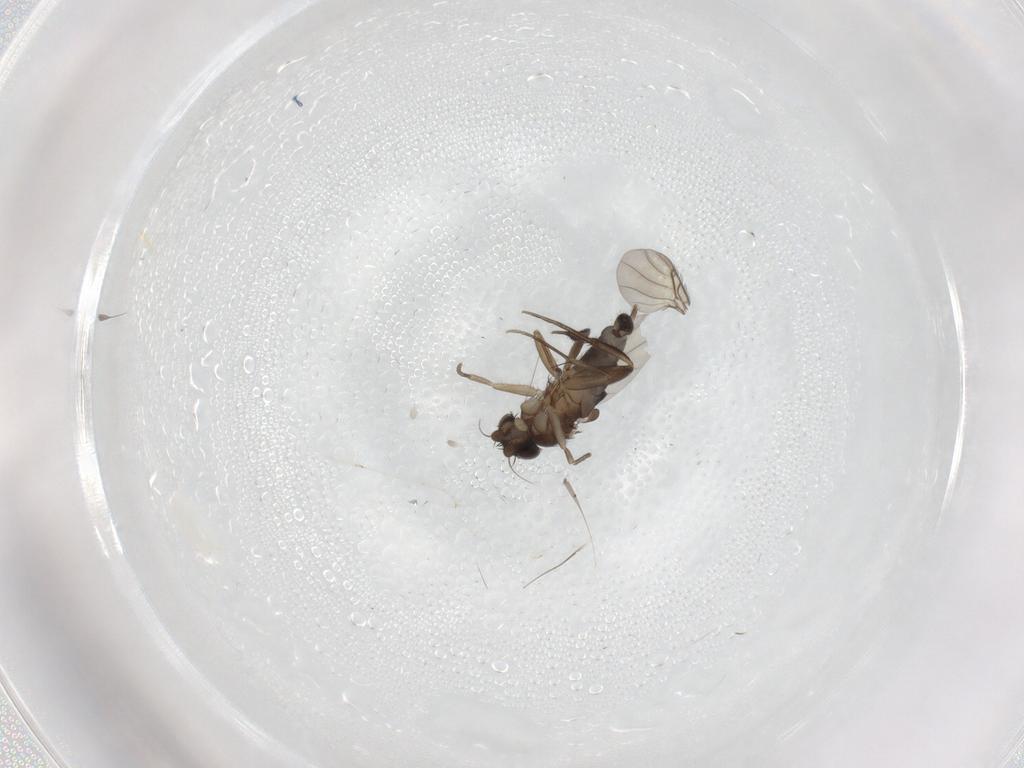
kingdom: Animalia
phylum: Arthropoda
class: Insecta
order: Diptera
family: Phoridae
